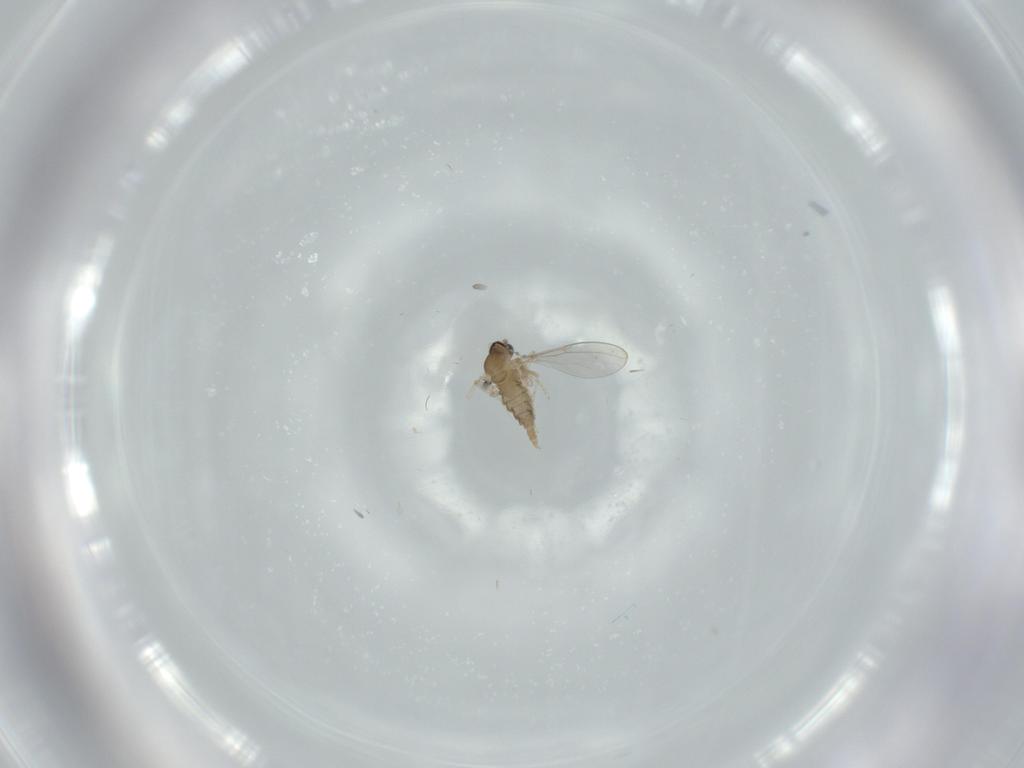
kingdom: Animalia
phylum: Arthropoda
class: Insecta
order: Diptera
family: Cecidomyiidae
